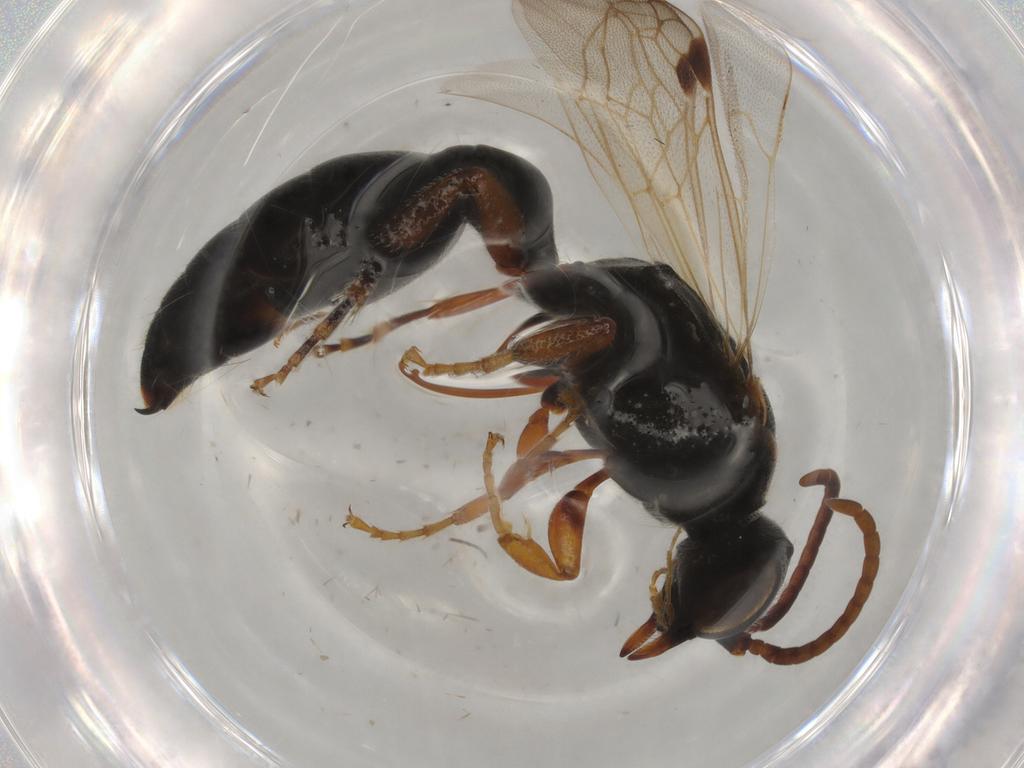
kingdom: Animalia
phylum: Arthropoda
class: Insecta
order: Hymenoptera
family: Tiphiidae
